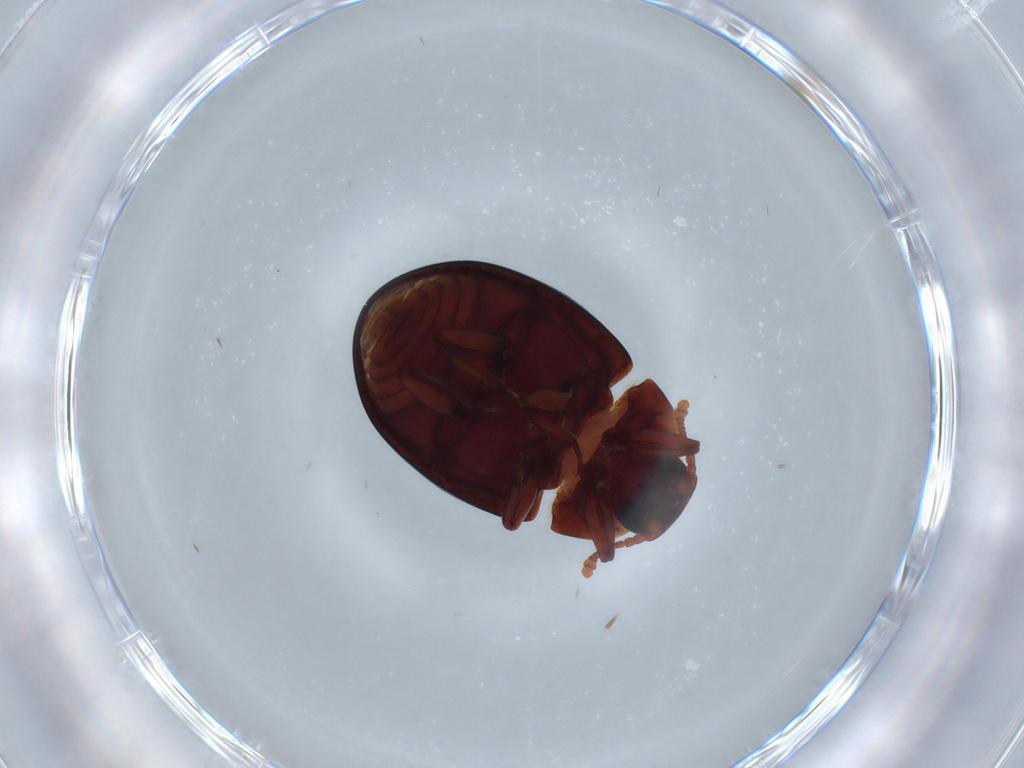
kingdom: Animalia
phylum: Arthropoda
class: Insecta
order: Coleoptera
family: Zopheridae
